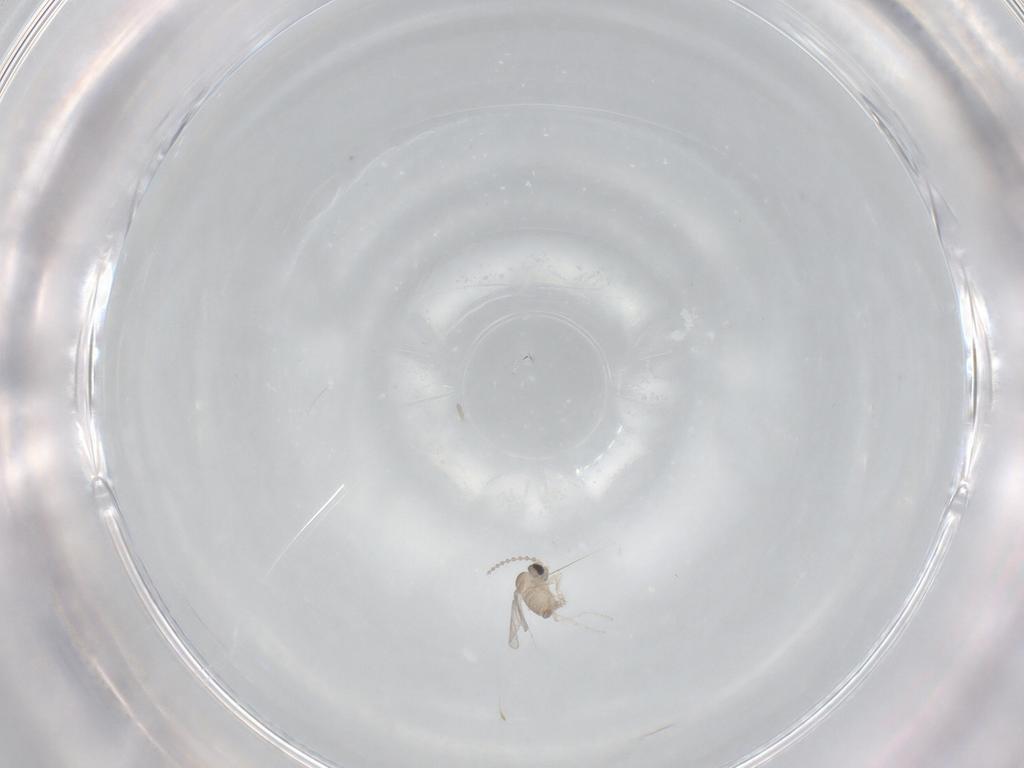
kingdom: Animalia
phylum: Arthropoda
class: Insecta
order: Diptera
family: Cecidomyiidae
